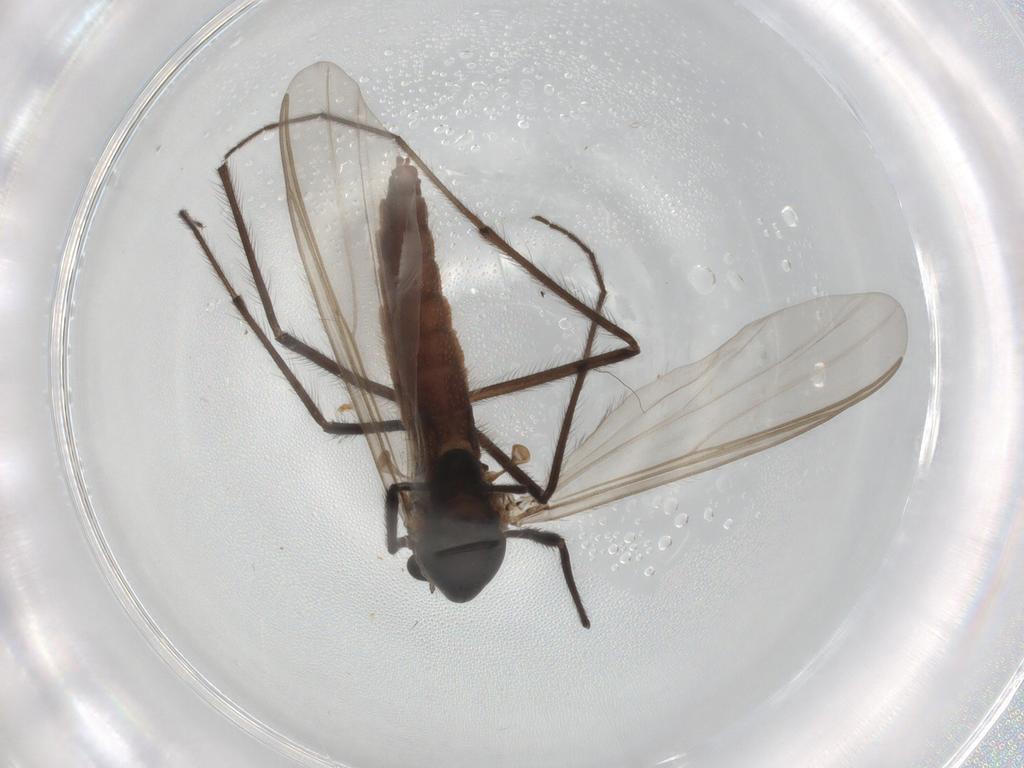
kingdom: Animalia
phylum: Arthropoda
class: Insecta
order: Diptera
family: Chironomidae
